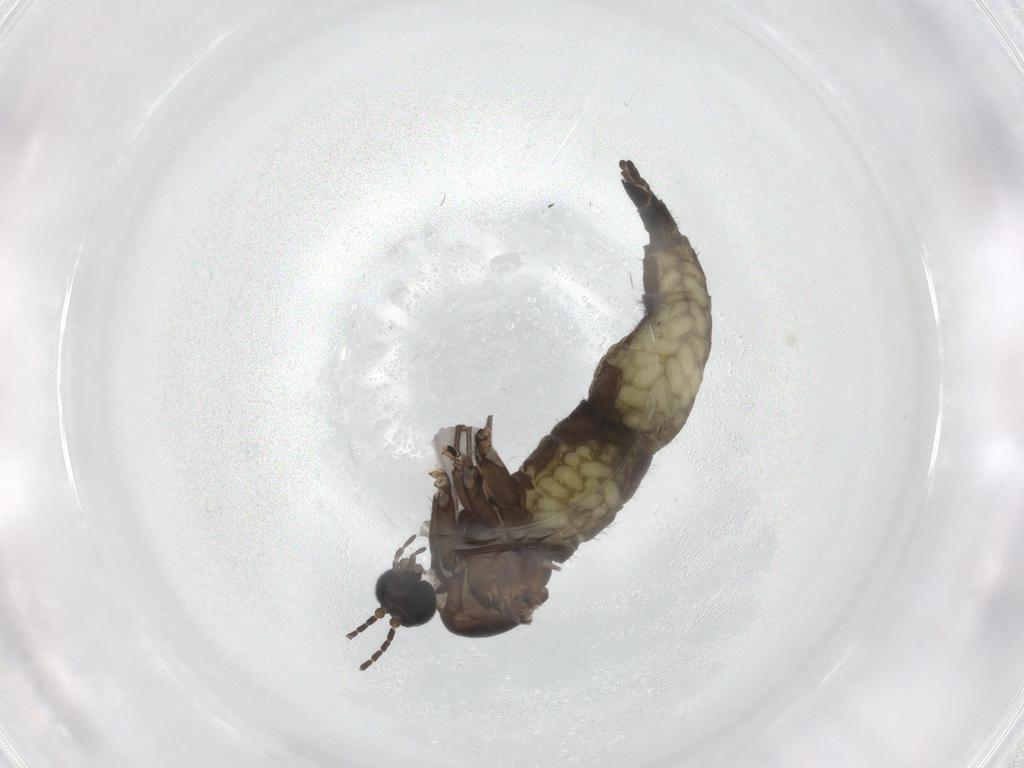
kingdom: Animalia
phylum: Arthropoda
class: Insecta
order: Diptera
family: Sciaridae
